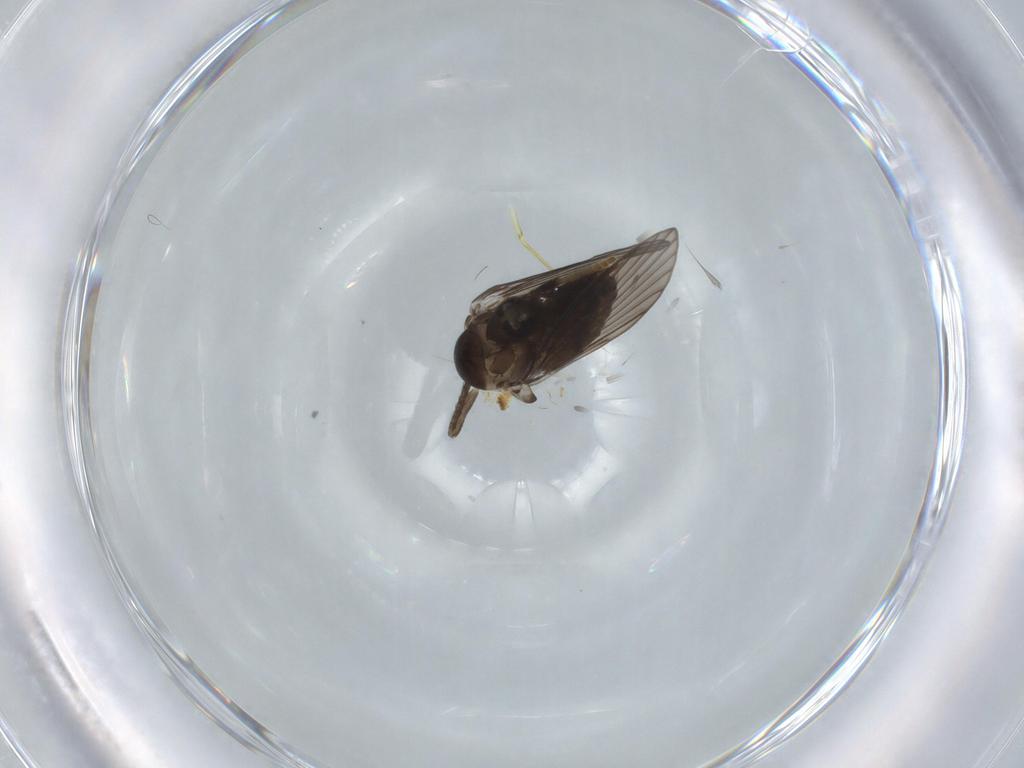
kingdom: Animalia
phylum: Arthropoda
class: Insecta
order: Diptera
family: Psychodidae
